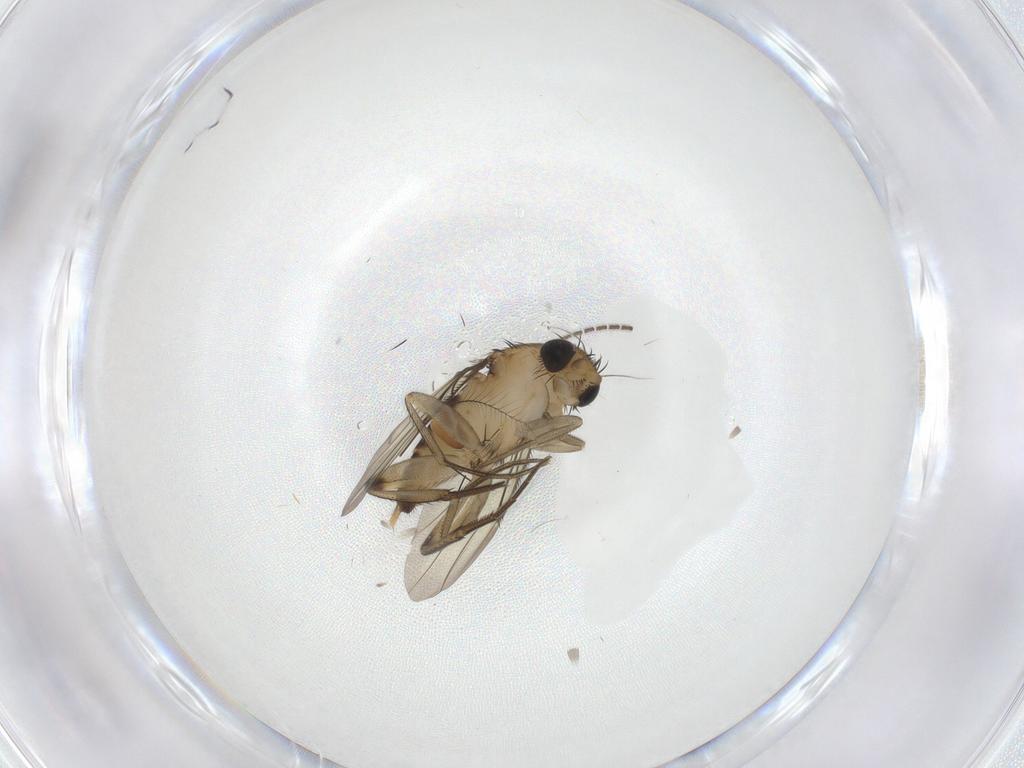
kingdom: Animalia
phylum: Arthropoda
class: Insecta
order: Diptera
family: Phoridae
